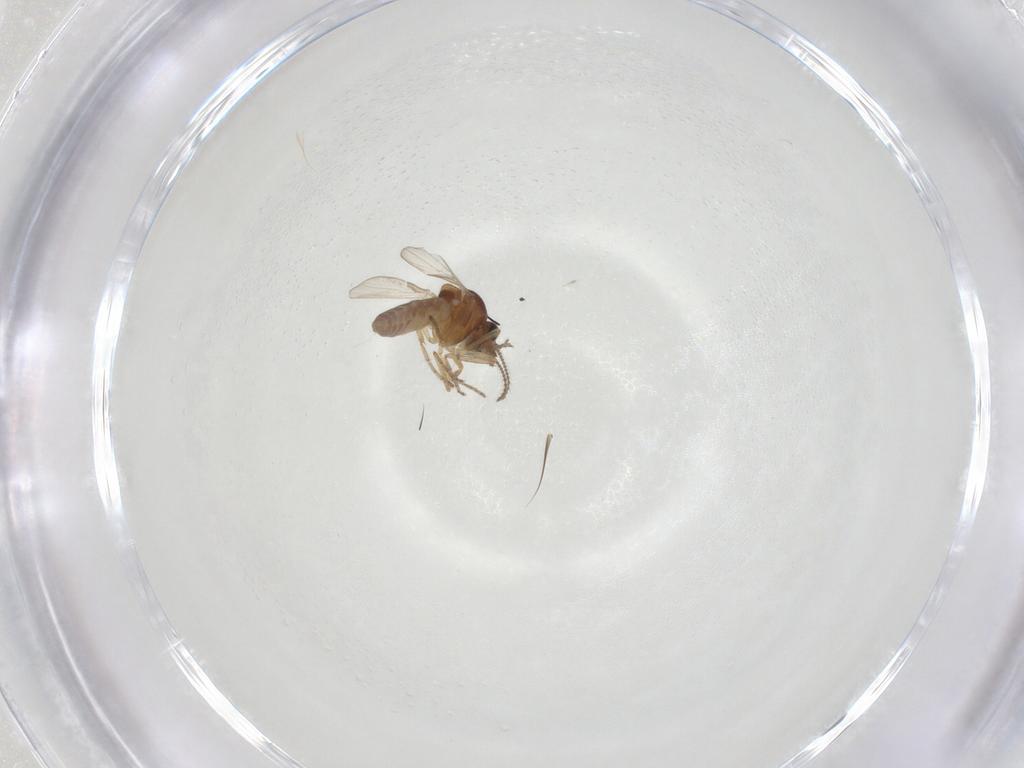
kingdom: Animalia
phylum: Arthropoda
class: Insecta
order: Diptera
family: Ceratopogonidae
